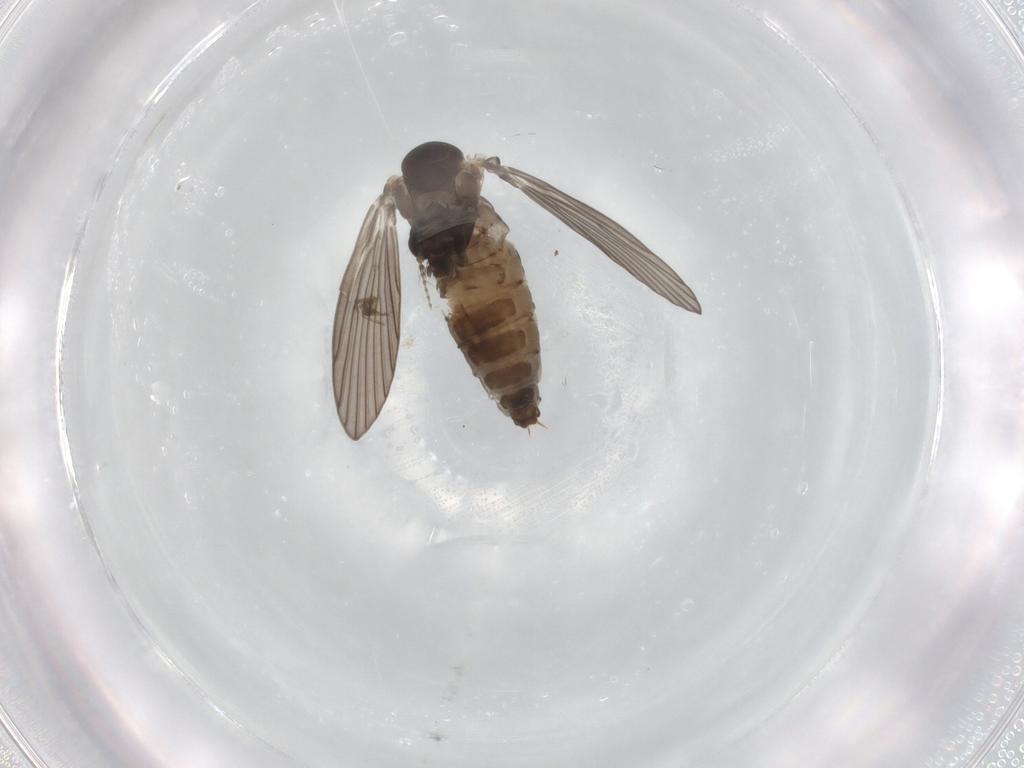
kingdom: Animalia
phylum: Arthropoda
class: Insecta
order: Diptera
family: Psychodidae
